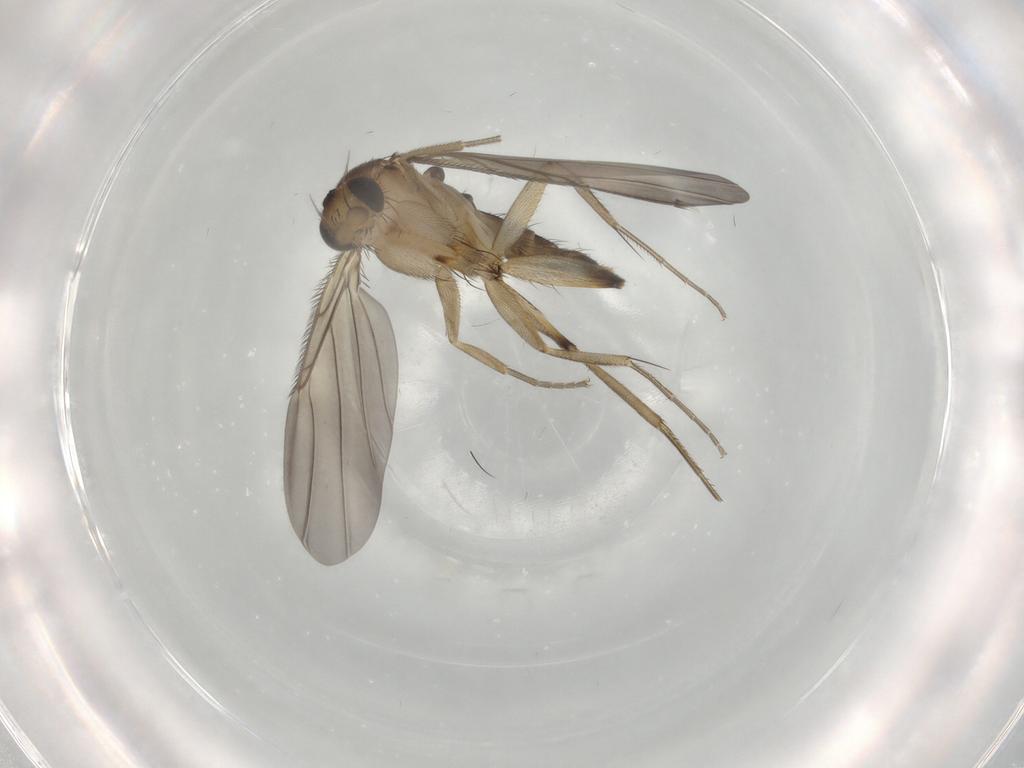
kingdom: Animalia
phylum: Arthropoda
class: Insecta
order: Diptera
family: Phoridae
